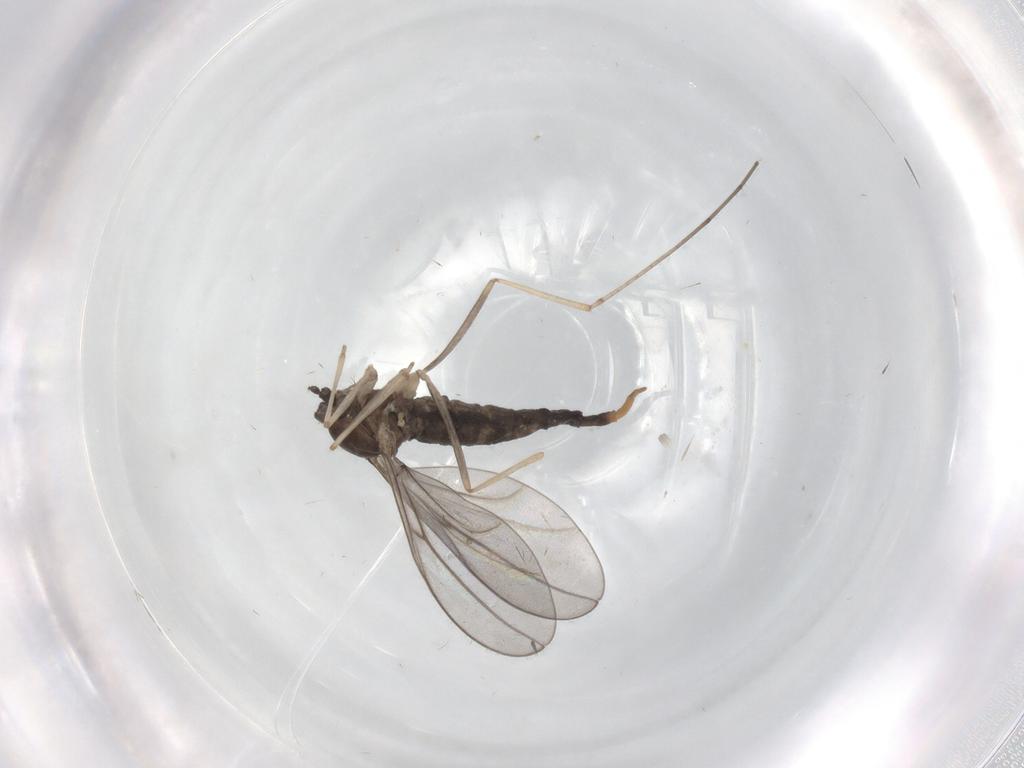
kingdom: Animalia
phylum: Arthropoda
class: Insecta
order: Diptera
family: Cecidomyiidae
